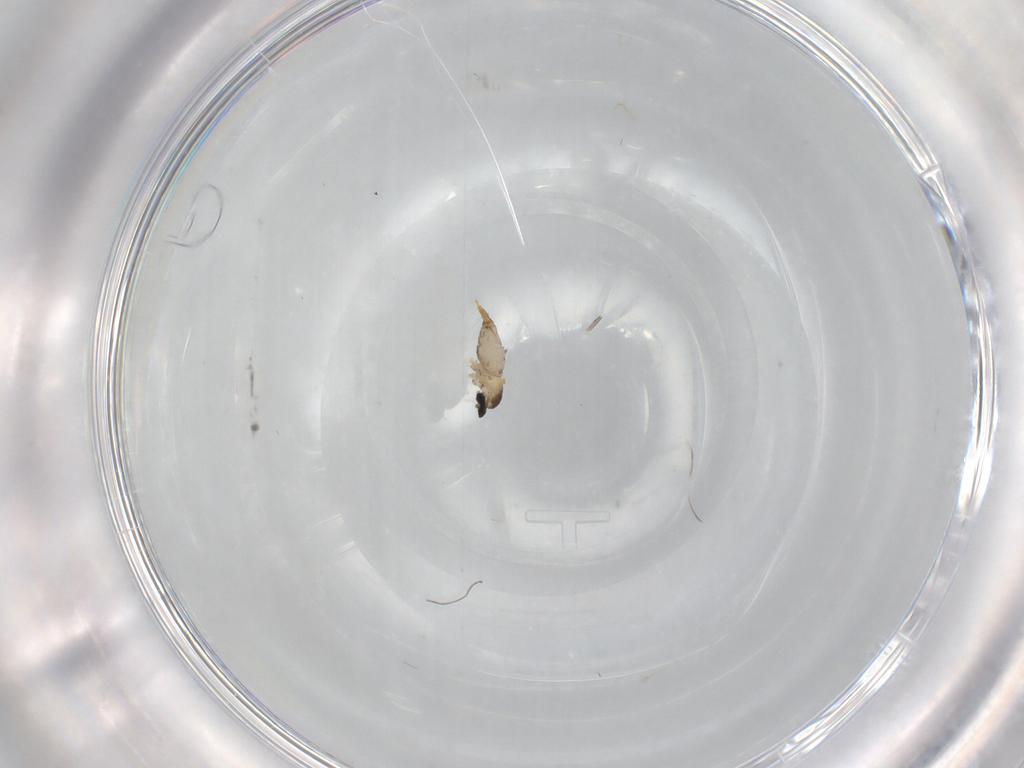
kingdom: Animalia
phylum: Arthropoda
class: Insecta
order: Diptera
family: Cecidomyiidae
